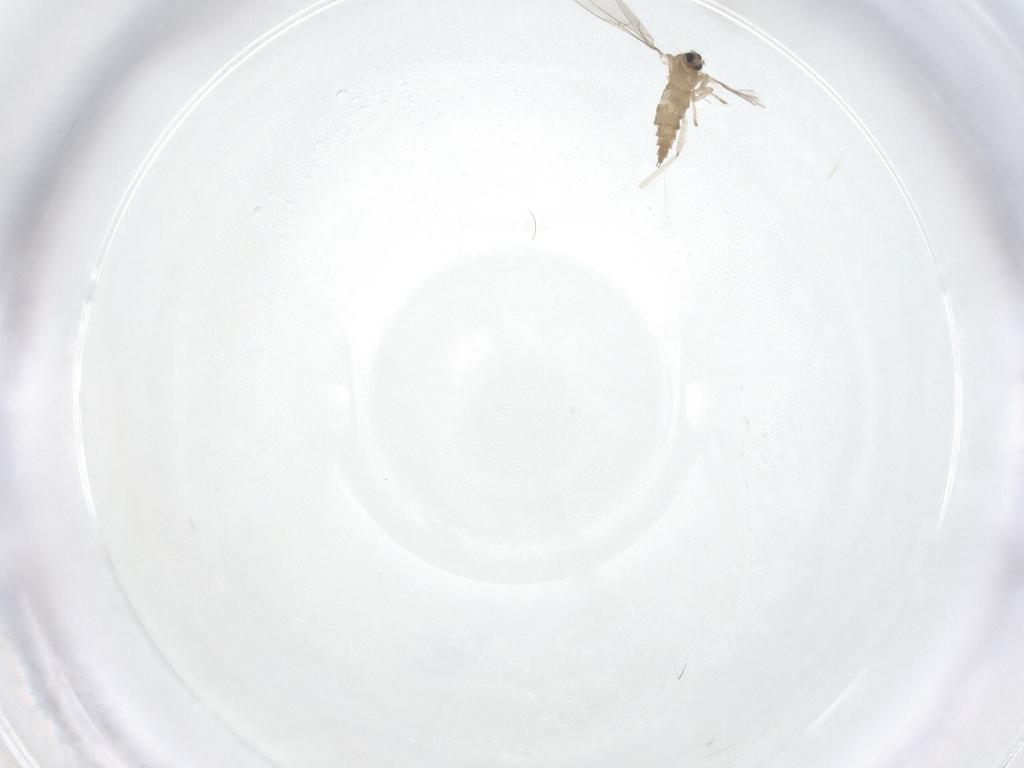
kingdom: Animalia
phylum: Arthropoda
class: Insecta
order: Diptera
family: Cecidomyiidae
